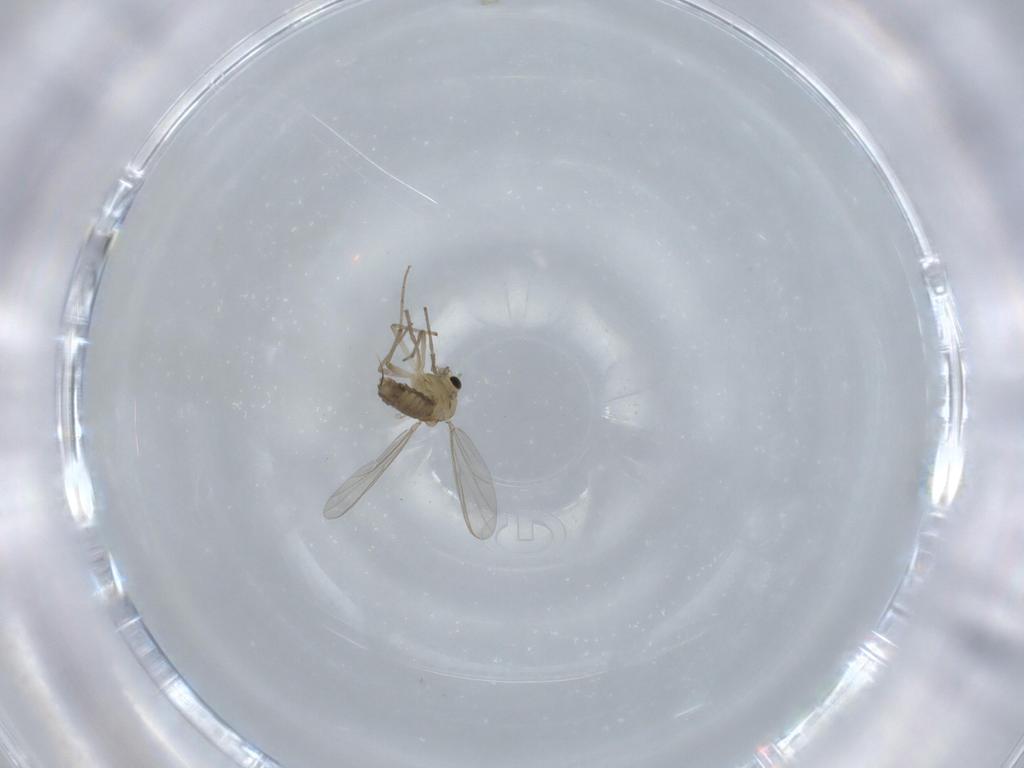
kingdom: Animalia
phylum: Arthropoda
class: Insecta
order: Diptera
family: Chironomidae
